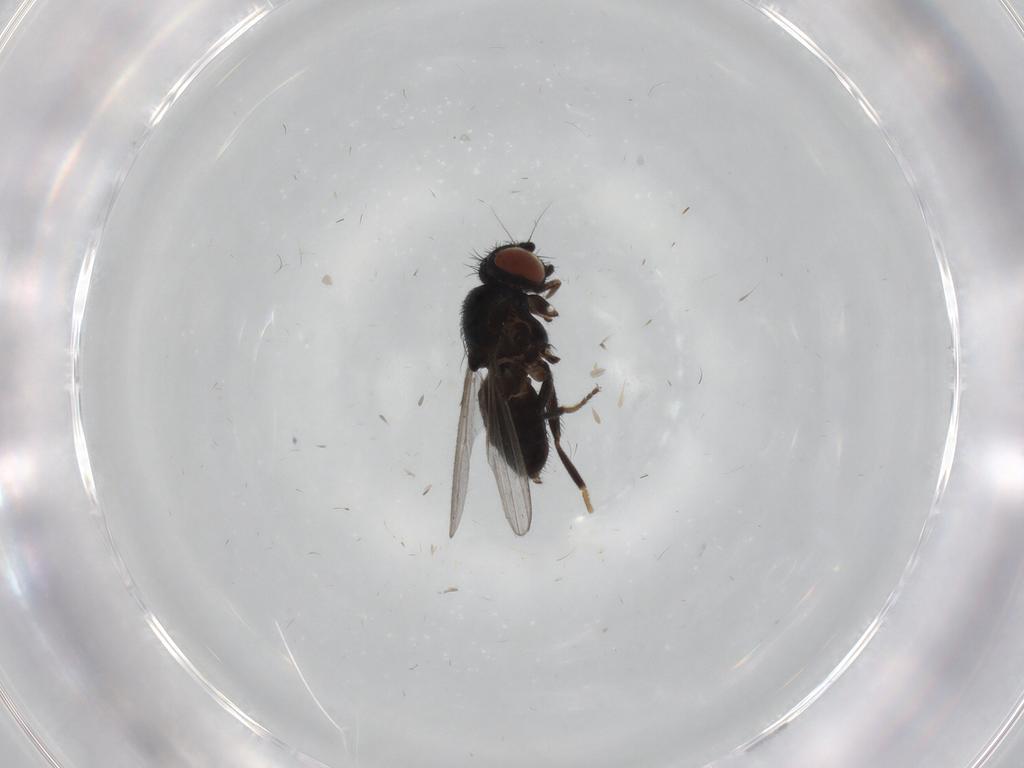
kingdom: Animalia
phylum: Arthropoda
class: Insecta
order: Diptera
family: Milichiidae
